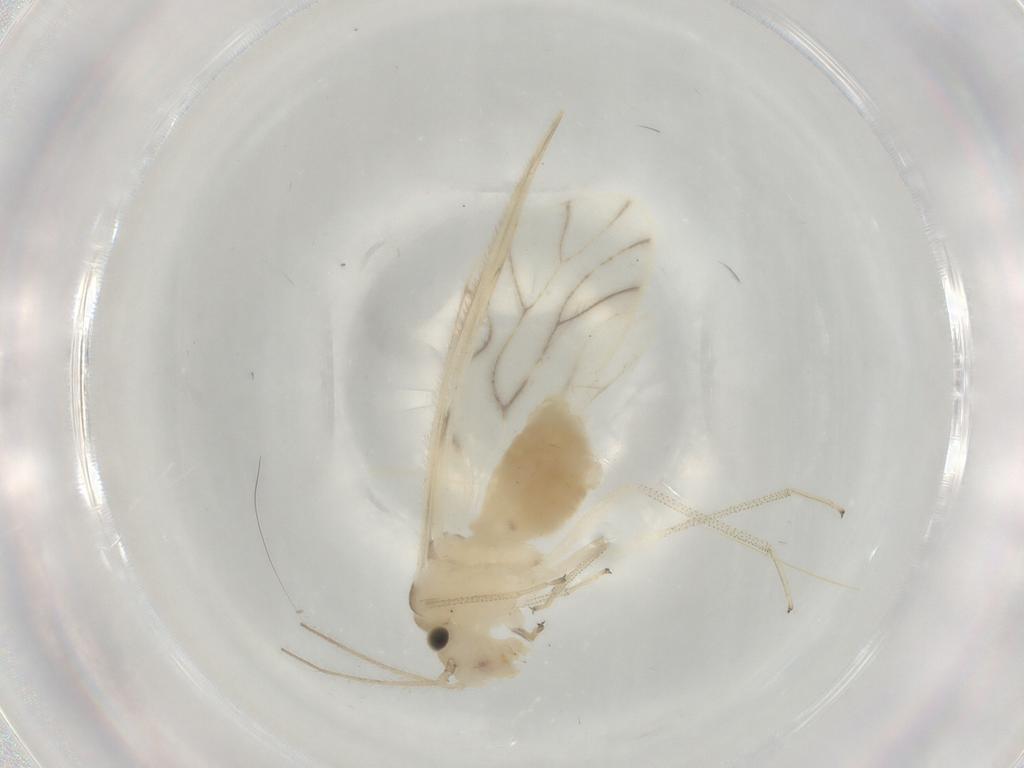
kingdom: Animalia
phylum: Arthropoda
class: Insecta
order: Psocodea
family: Caeciliusidae
